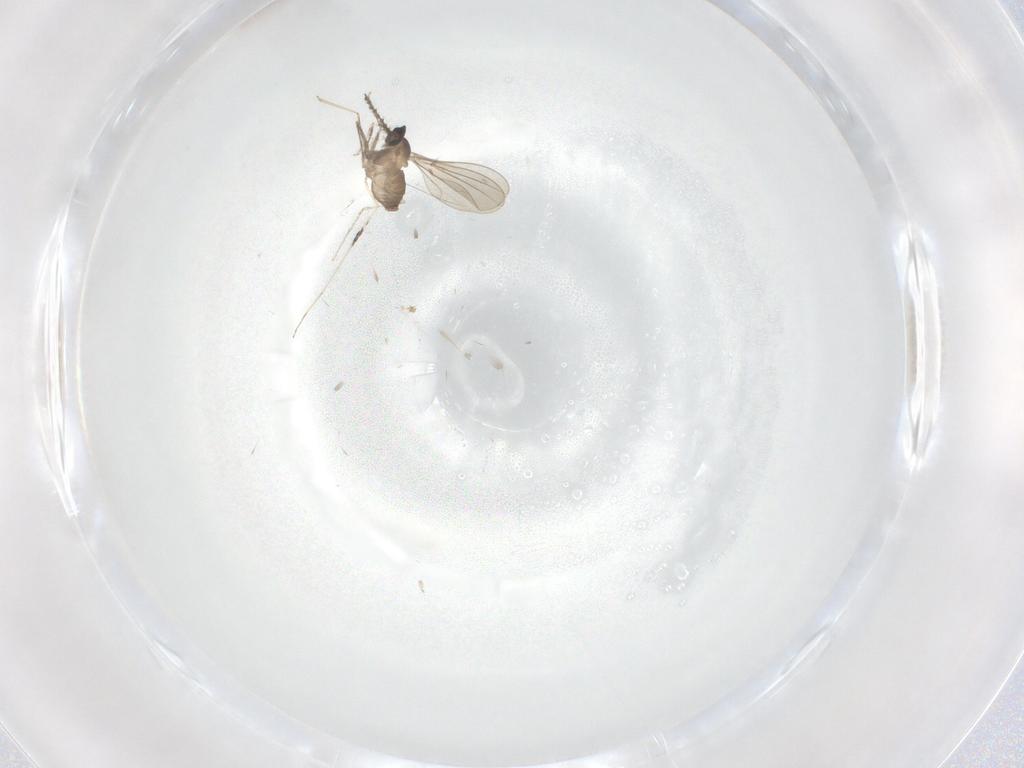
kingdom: Animalia
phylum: Arthropoda
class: Insecta
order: Diptera
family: Cecidomyiidae
